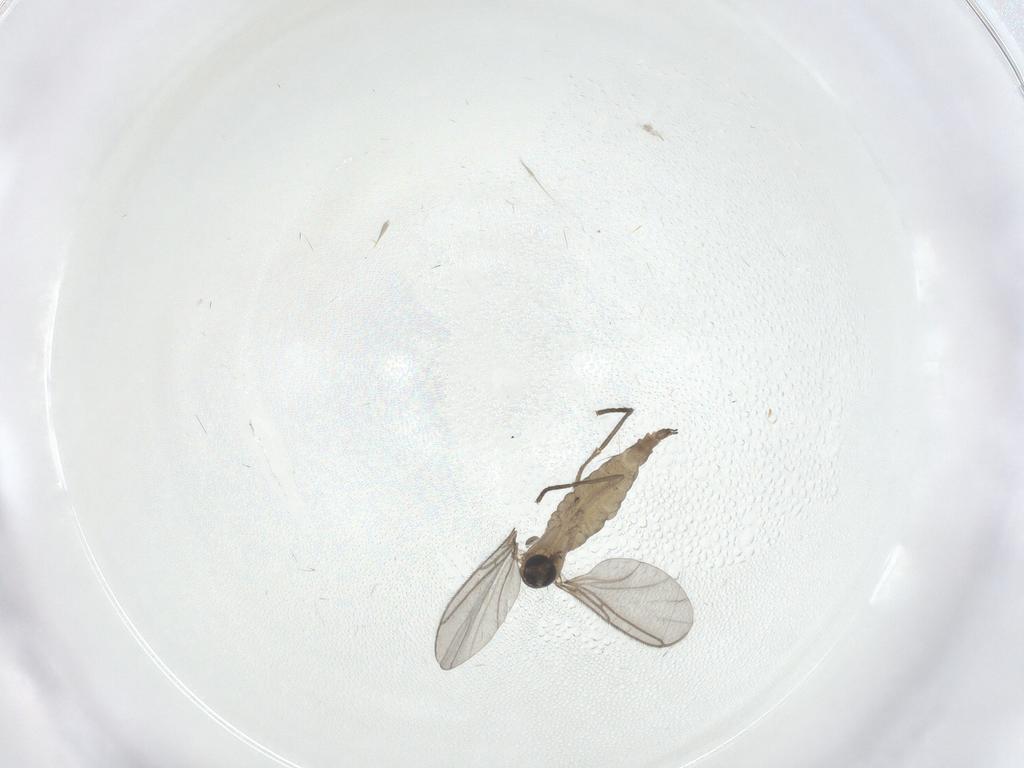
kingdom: Animalia
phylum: Arthropoda
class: Insecta
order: Diptera
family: Sciaridae
